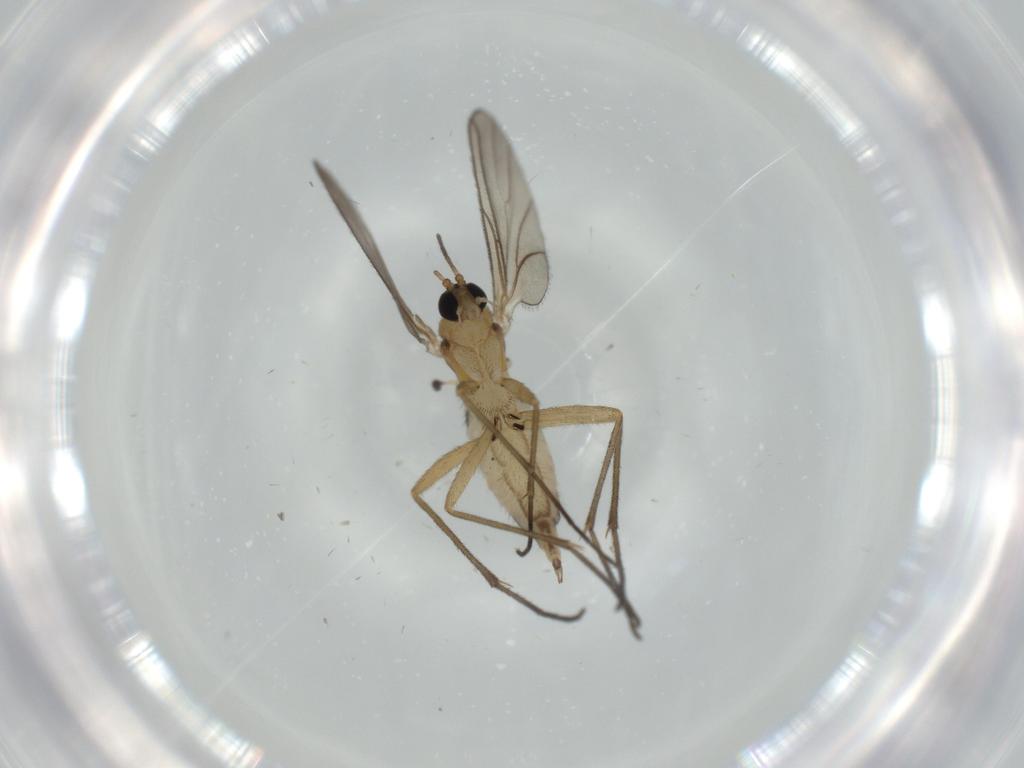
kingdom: Animalia
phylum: Arthropoda
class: Insecta
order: Diptera
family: Sciaridae
